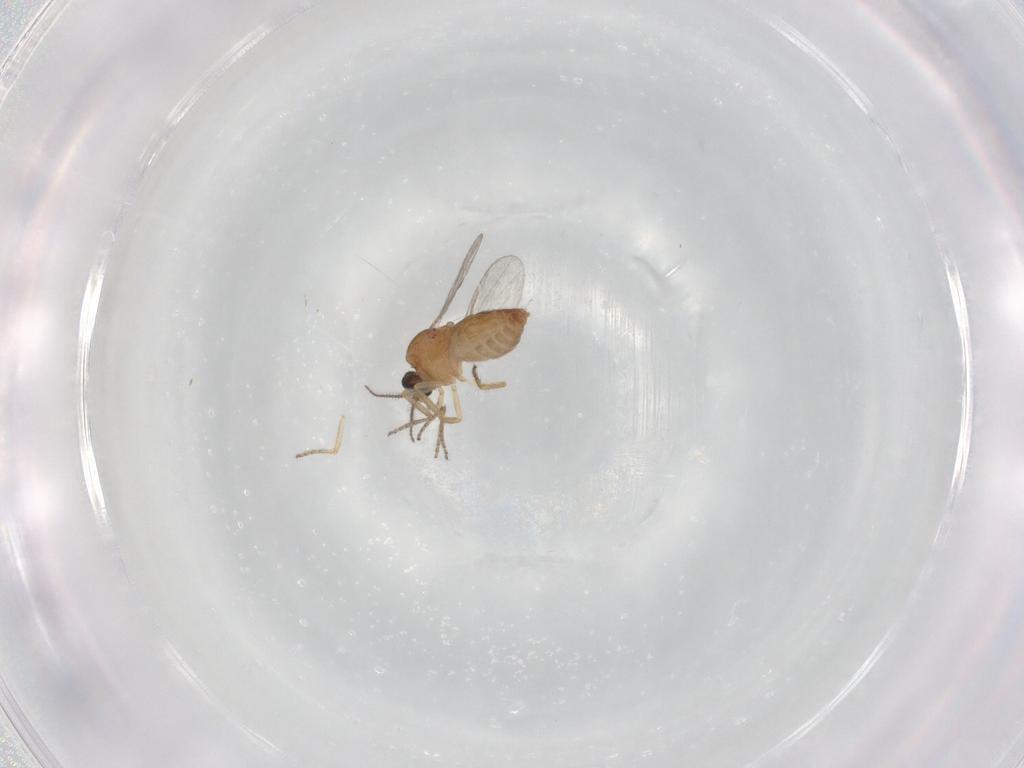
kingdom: Animalia
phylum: Arthropoda
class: Insecta
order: Diptera
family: Ceratopogonidae
